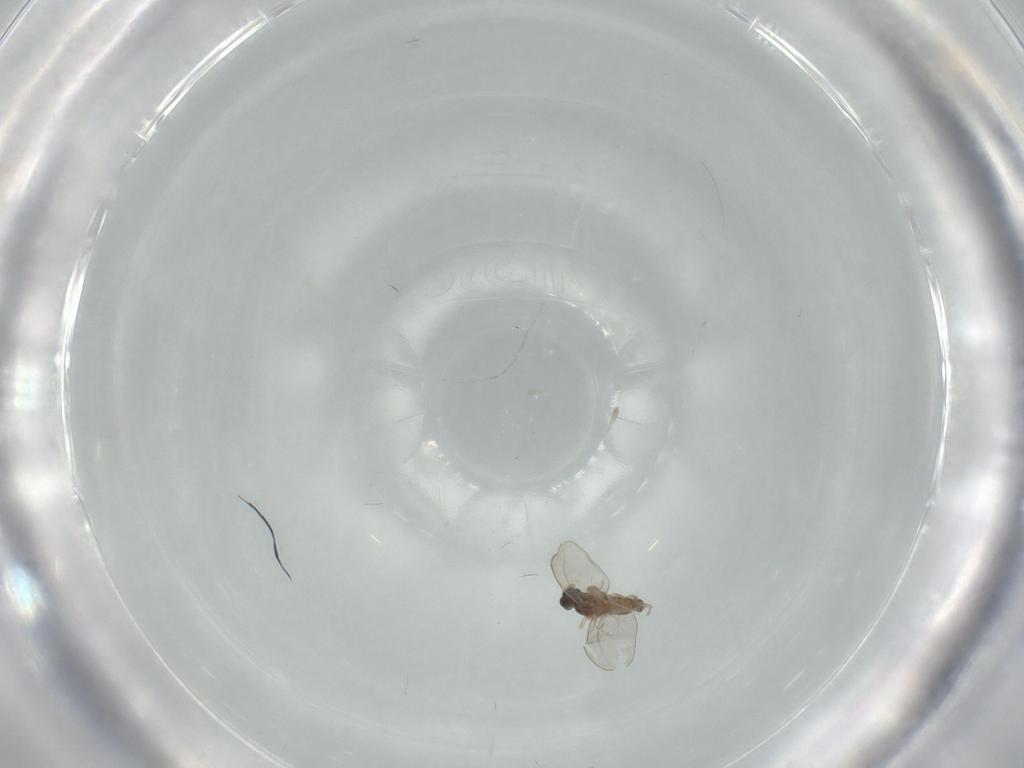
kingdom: Animalia
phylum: Arthropoda
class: Insecta
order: Diptera
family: Cecidomyiidae
